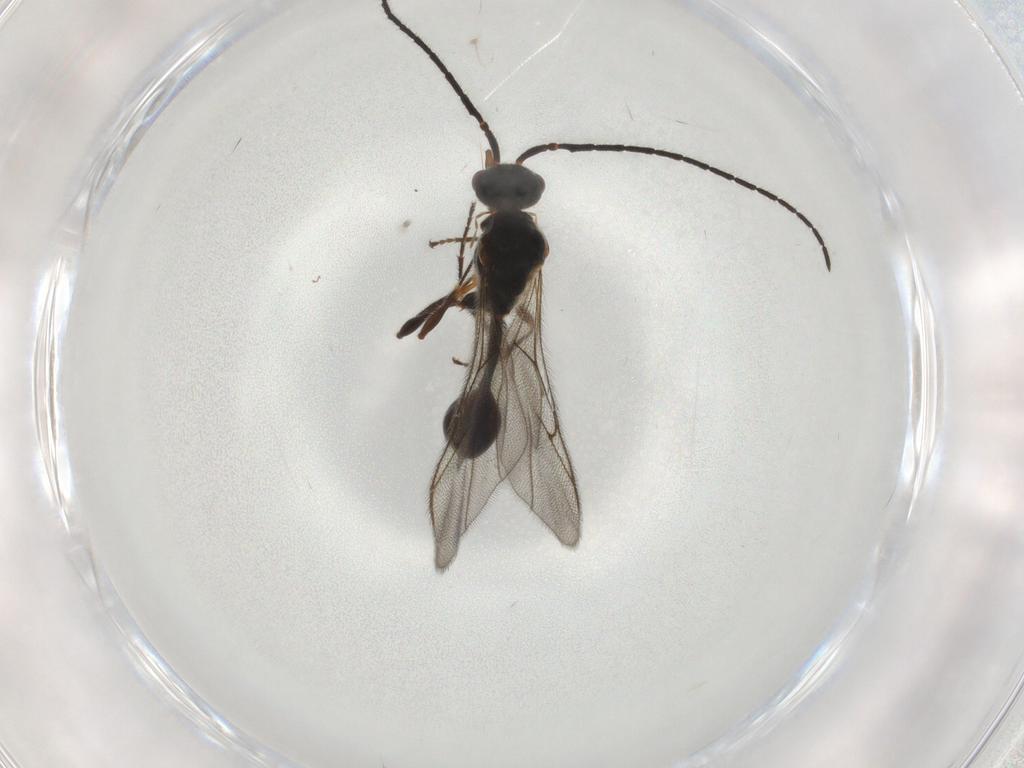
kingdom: Animalia
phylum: Arthropoda
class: Insecta
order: Hymenoptera
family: Diapriidae
